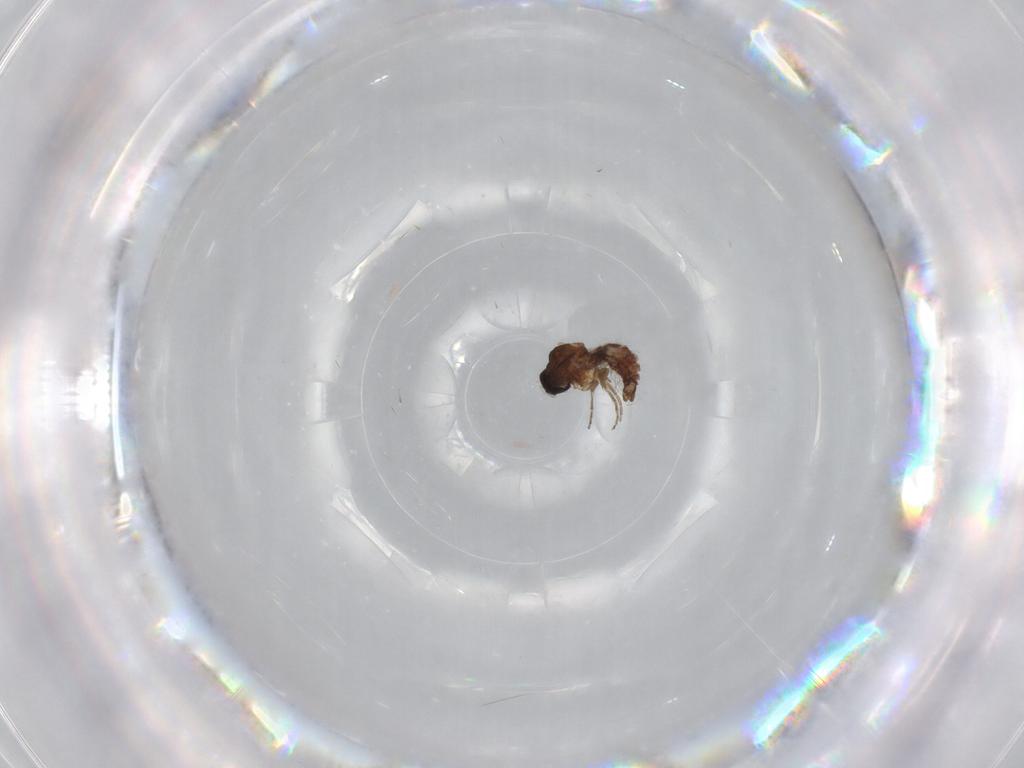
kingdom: Animalia
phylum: Arthropoda
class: Insecta
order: Diptera
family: Ceratopogonidae
